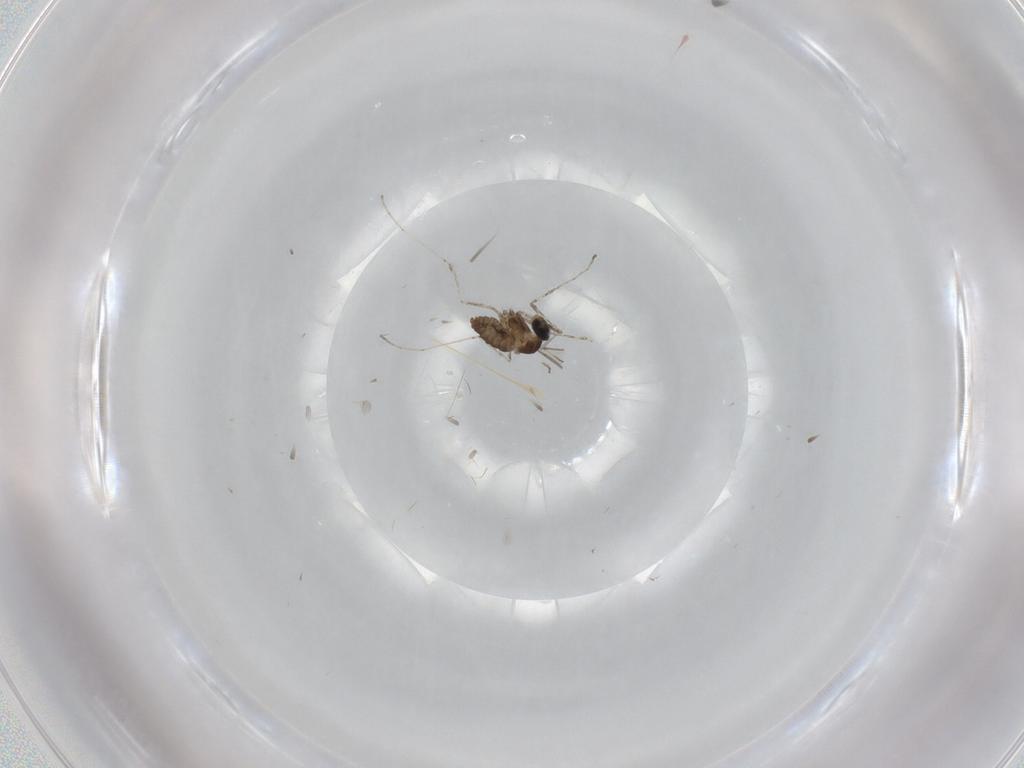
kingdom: Animalia
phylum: Arthropoda
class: Insecta
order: Diptera
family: Cecidomyiidae
